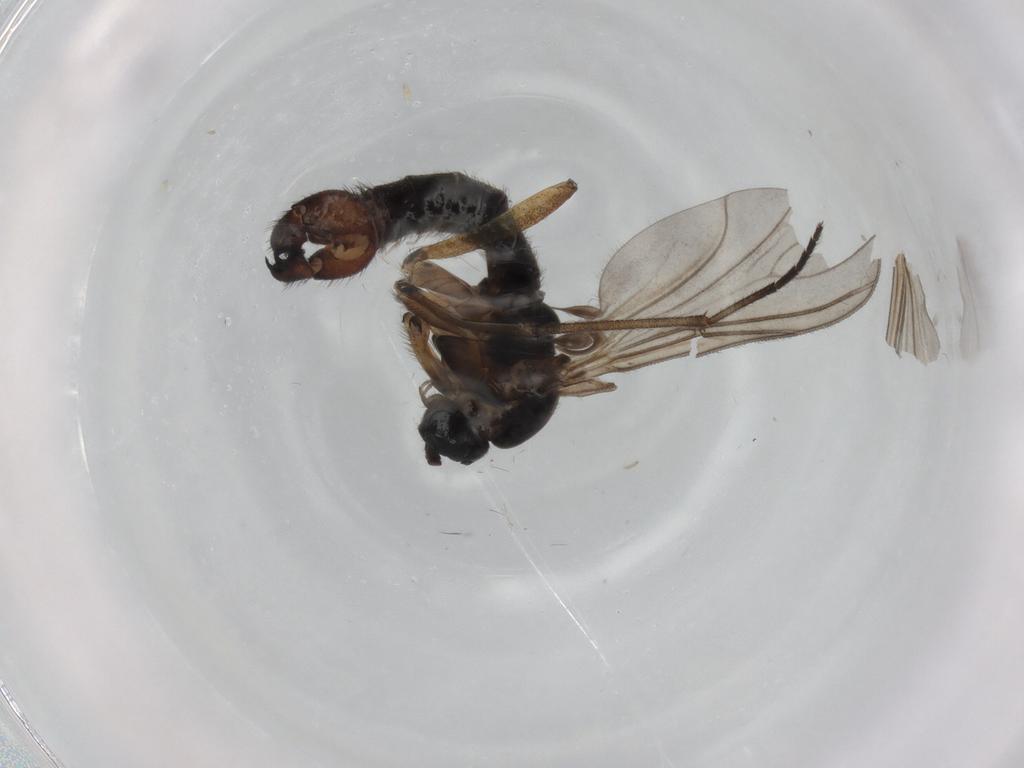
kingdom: Animalia
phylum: Arthropoda
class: Insecta
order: Diptera
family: Sciaridae
